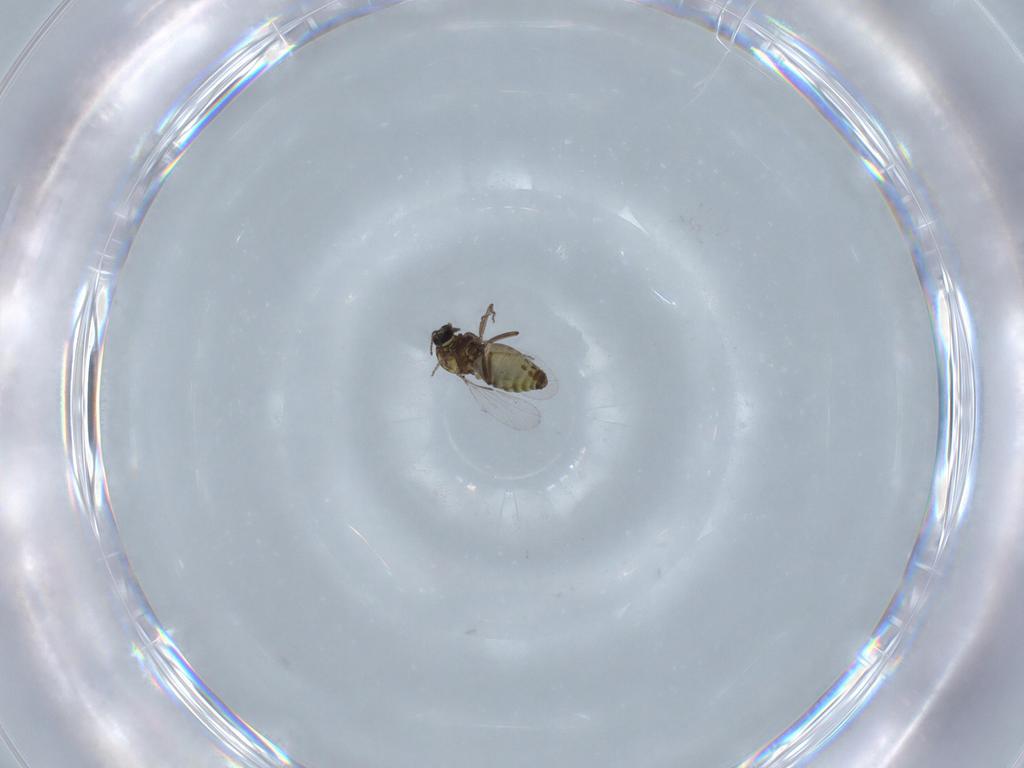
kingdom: Animalia
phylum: Arthropoda
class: Insecta
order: Diptera
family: Ceratopogonidae
